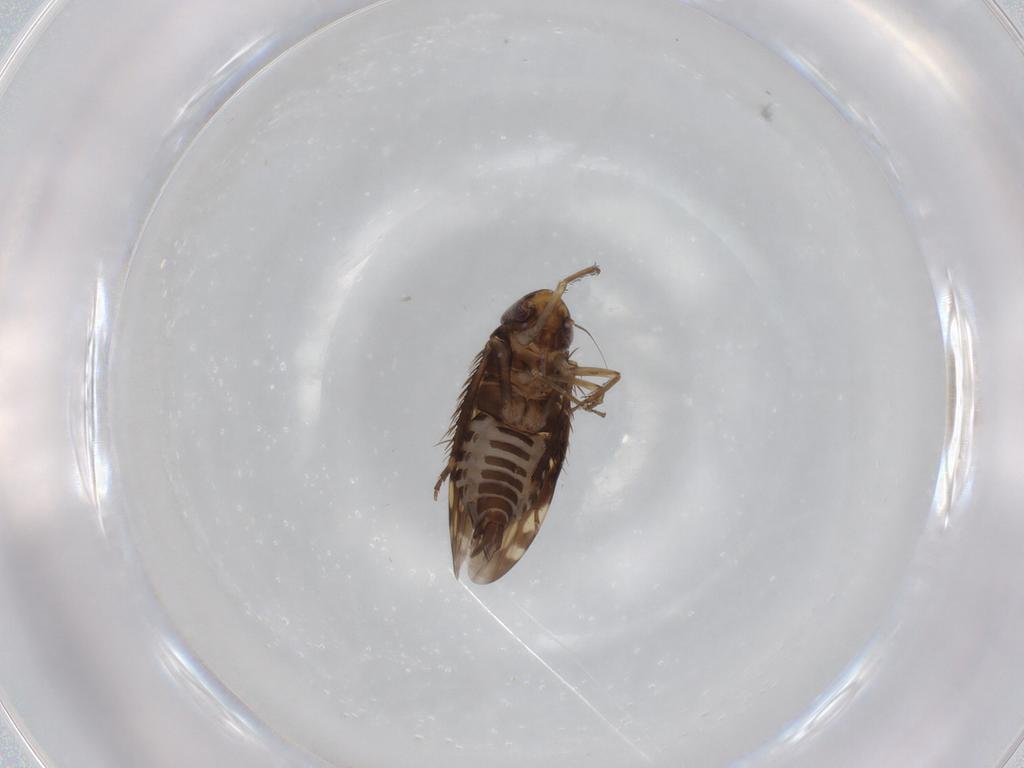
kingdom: Animalia
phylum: Arthropoda
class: Insecta
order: Hemiptera
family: Cicadellidae
